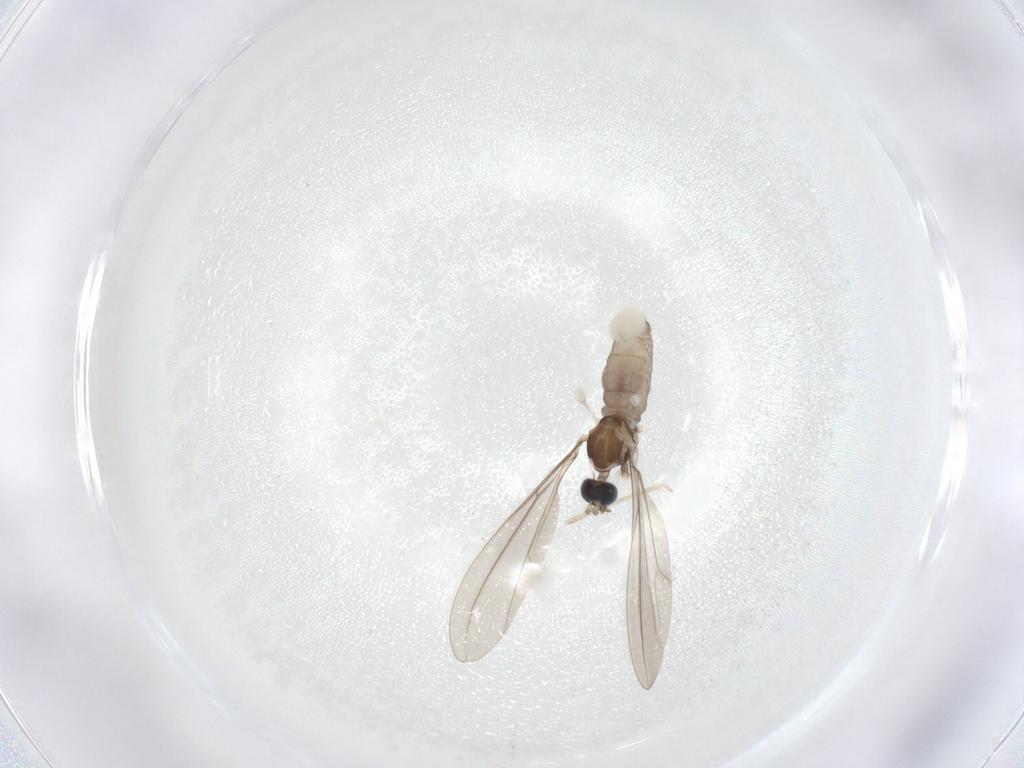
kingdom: Animalia
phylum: Arthropoda
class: Insecta
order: Diptera
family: Cecidomyiidae
